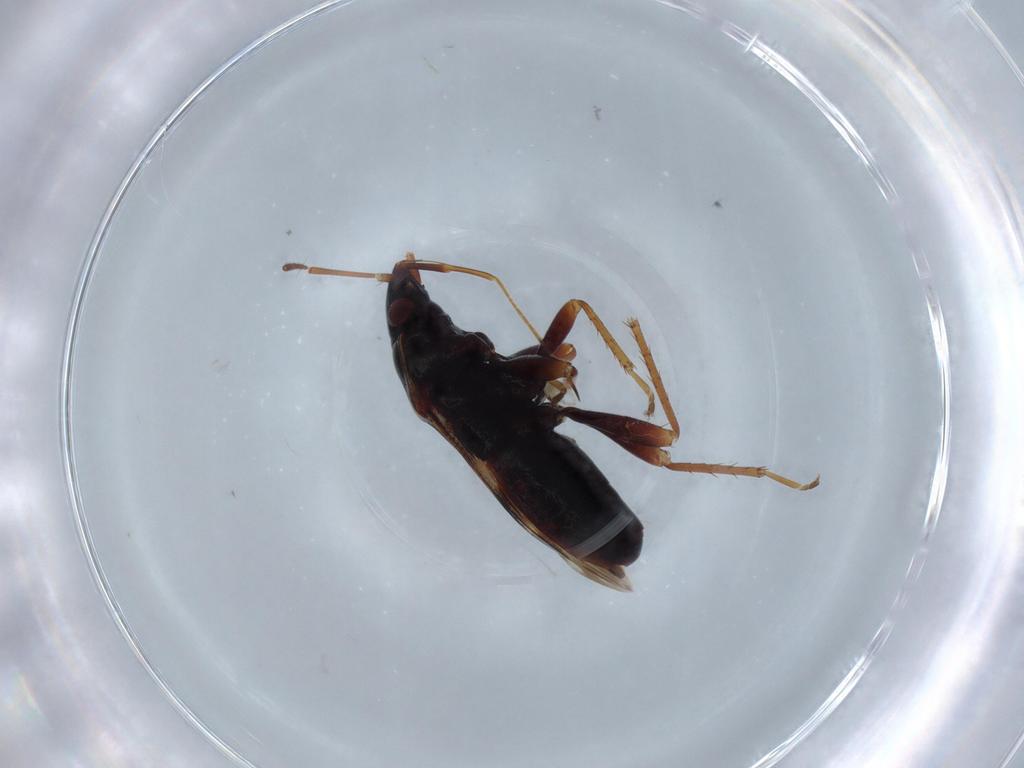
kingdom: Animalia
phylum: Arthropoda
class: Insecta
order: Hemiptera
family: Lygaeidae
